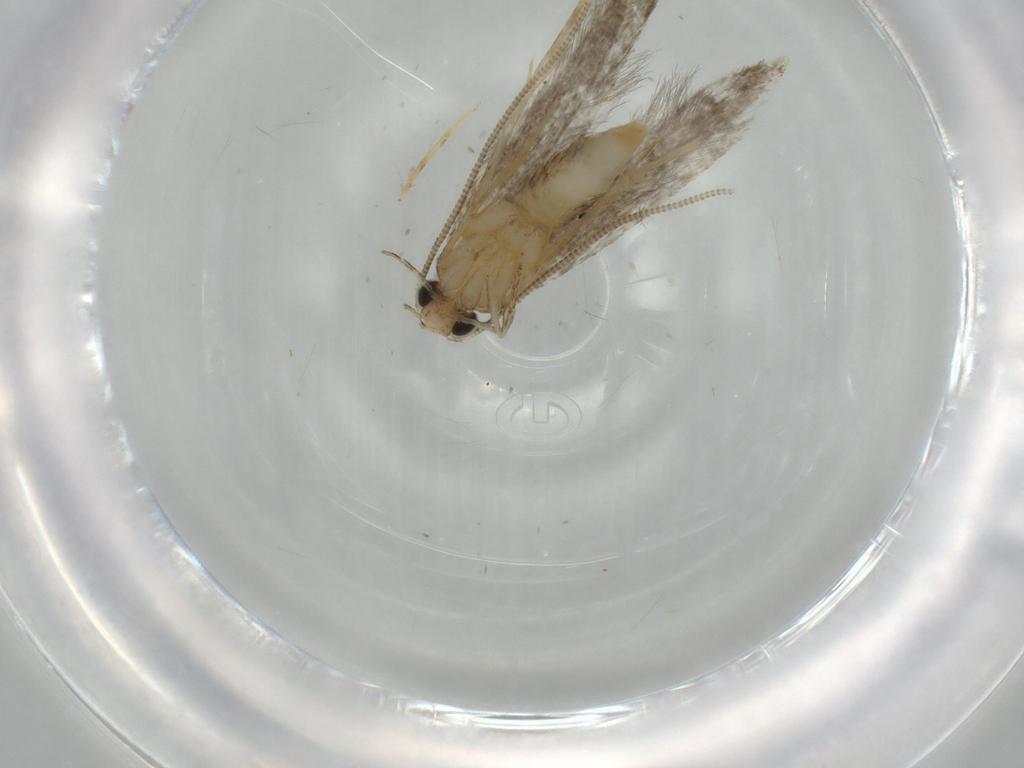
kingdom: Animalia
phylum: Arthropoda
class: Insecta
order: Lepidoptera
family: Tineidae
